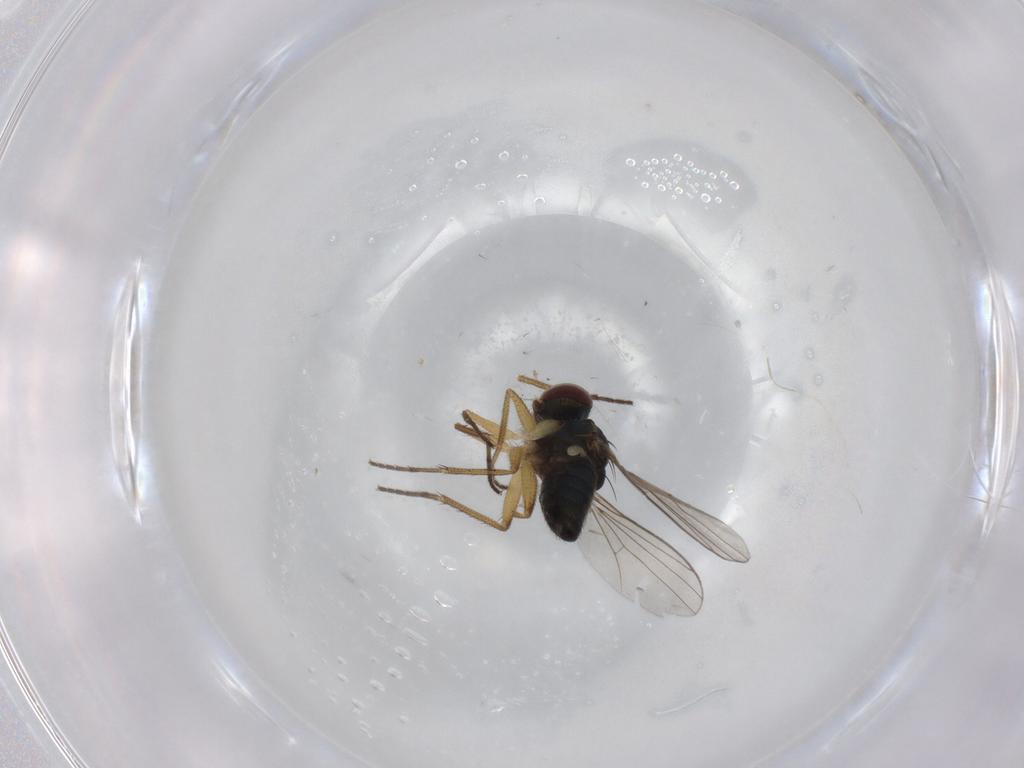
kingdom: Animalia
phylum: Arthropoda
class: Insecta
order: Diptera
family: Dolichopodidae
